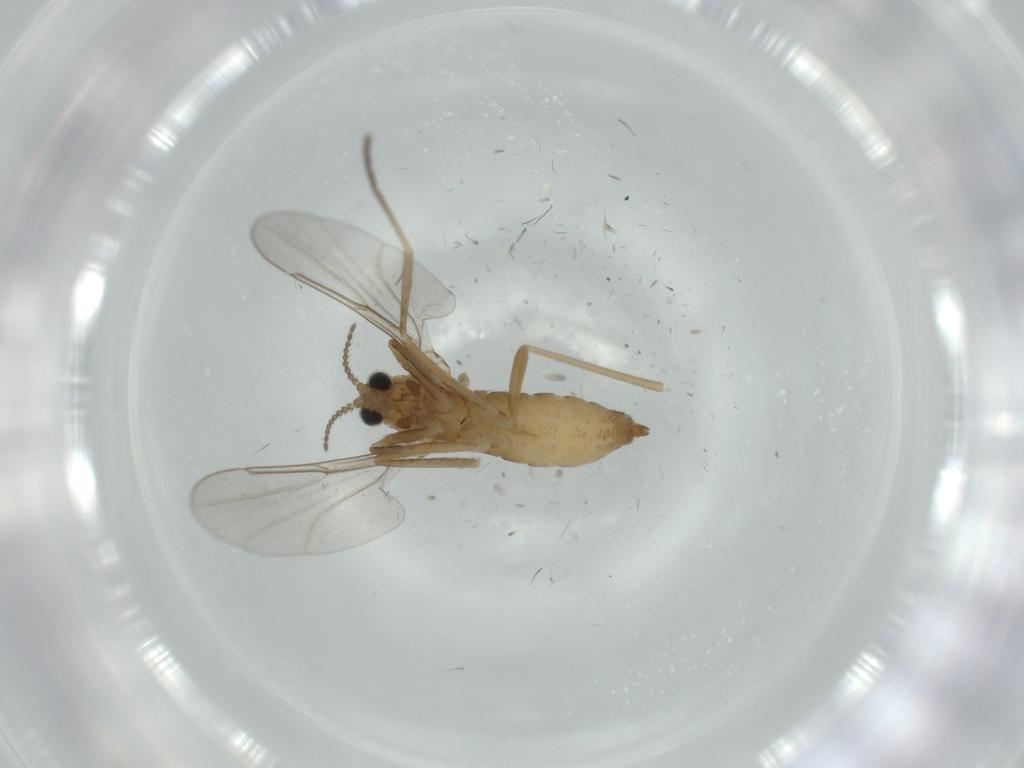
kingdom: Animalia
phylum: Arthropoda
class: Insecta
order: Diptera
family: Cecidomyiidae
